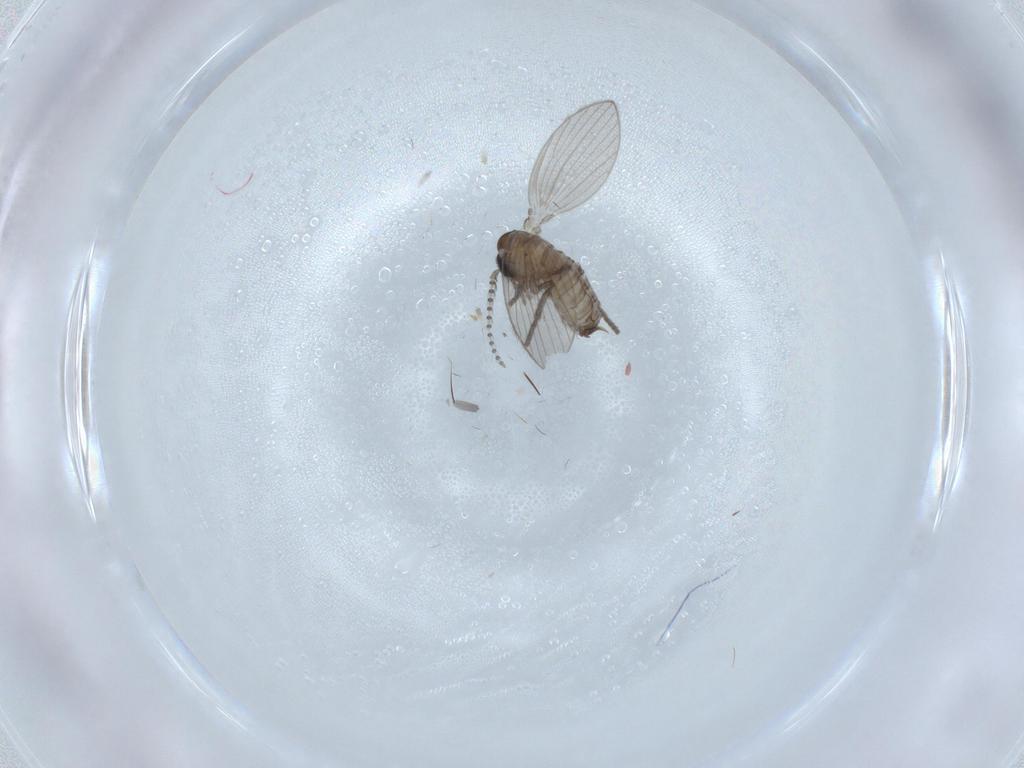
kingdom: Animalia
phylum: Arthropoda
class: Insecta
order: Diptera
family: Psychodidae
